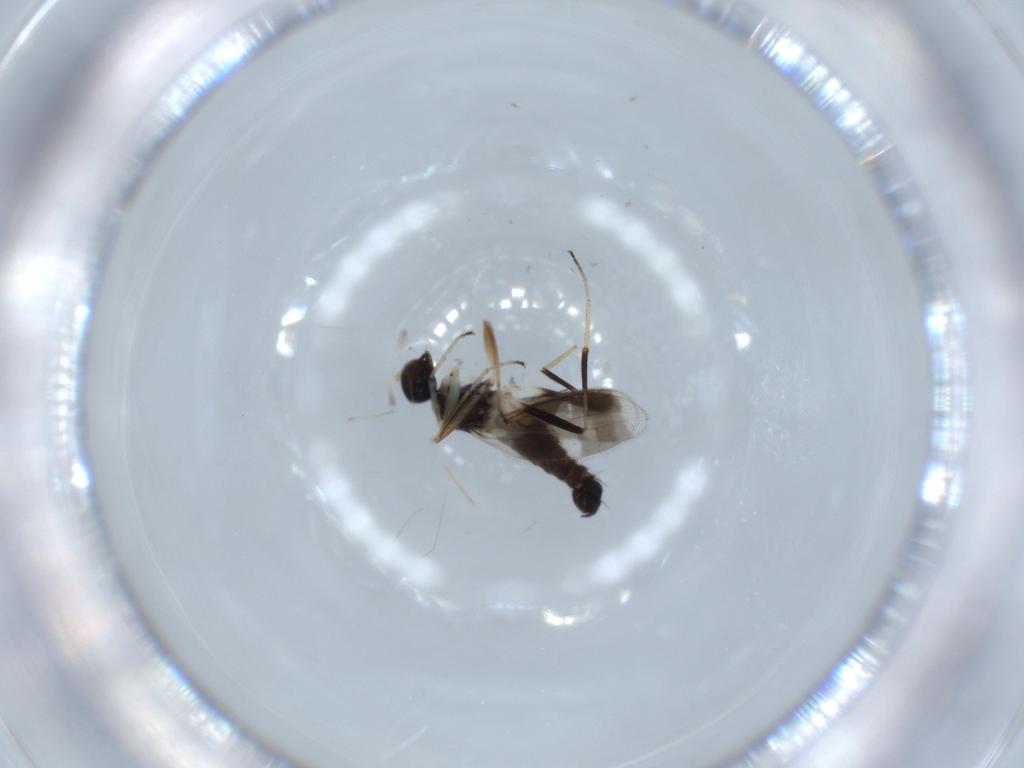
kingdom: Animalia
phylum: Arthropoda
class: Insecta
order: Diptera
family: Hybotidae
